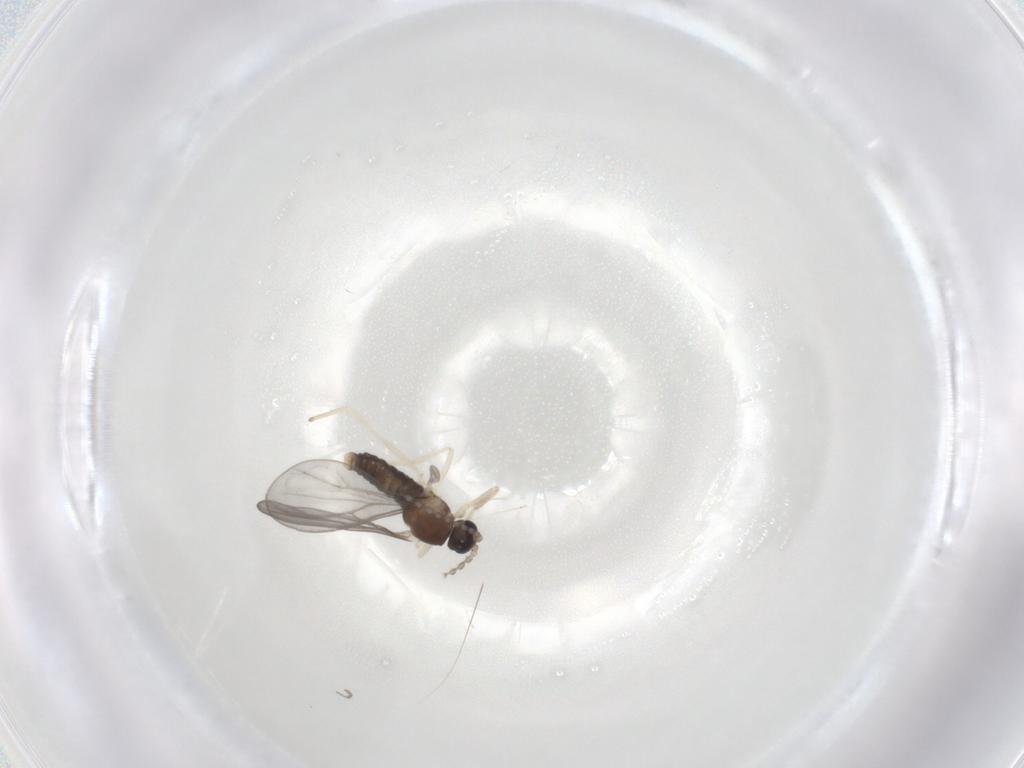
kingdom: Animalia
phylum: Arthropoda
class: Insecta
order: Diptera
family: Cecidomyiidae
